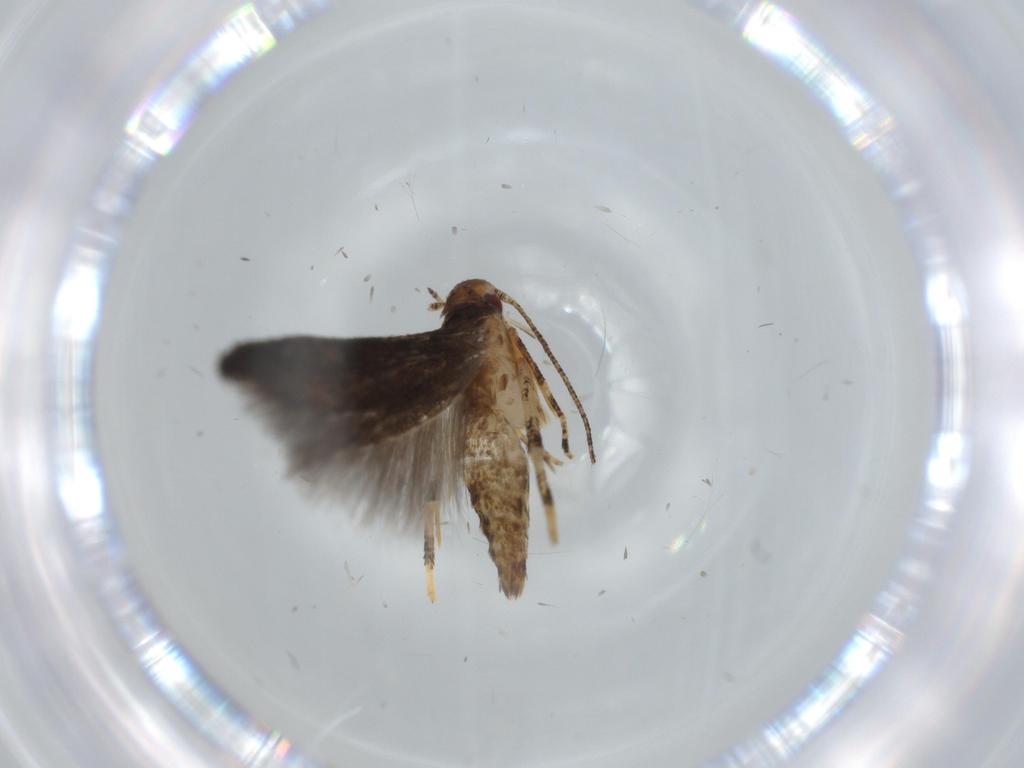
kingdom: Animalia
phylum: Arthropoda
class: Insecta
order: Lepidoptera
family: Momphidae
